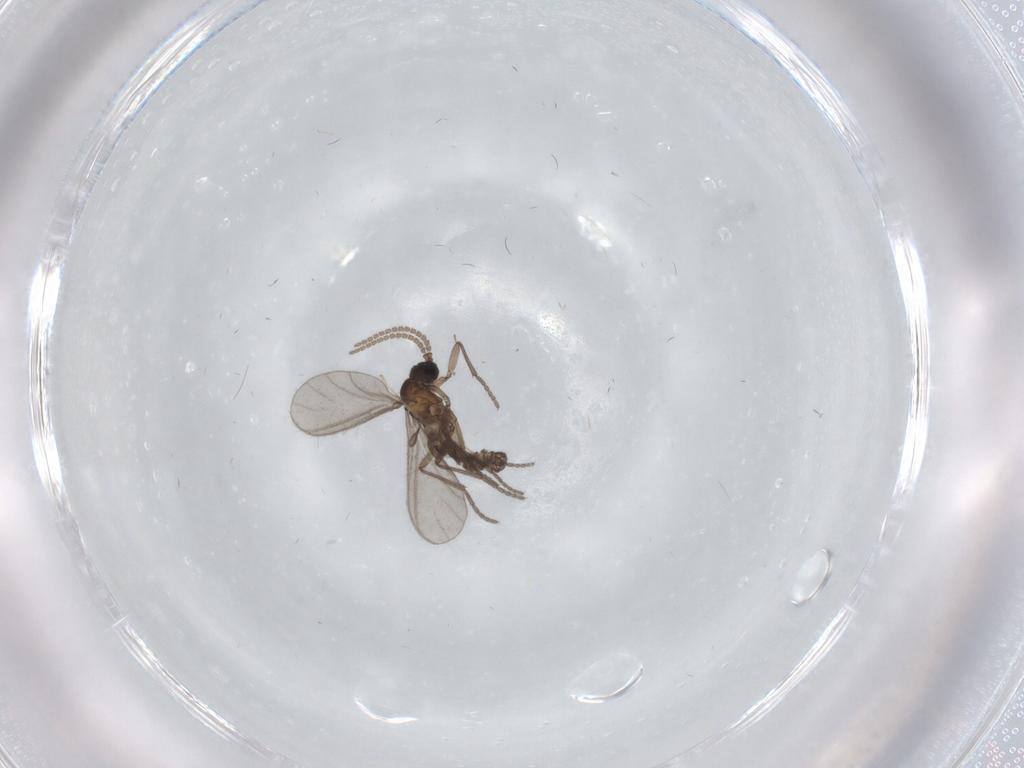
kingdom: Animalia
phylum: Arthropoda
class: Insecta
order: Diptera
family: Sciaridae
